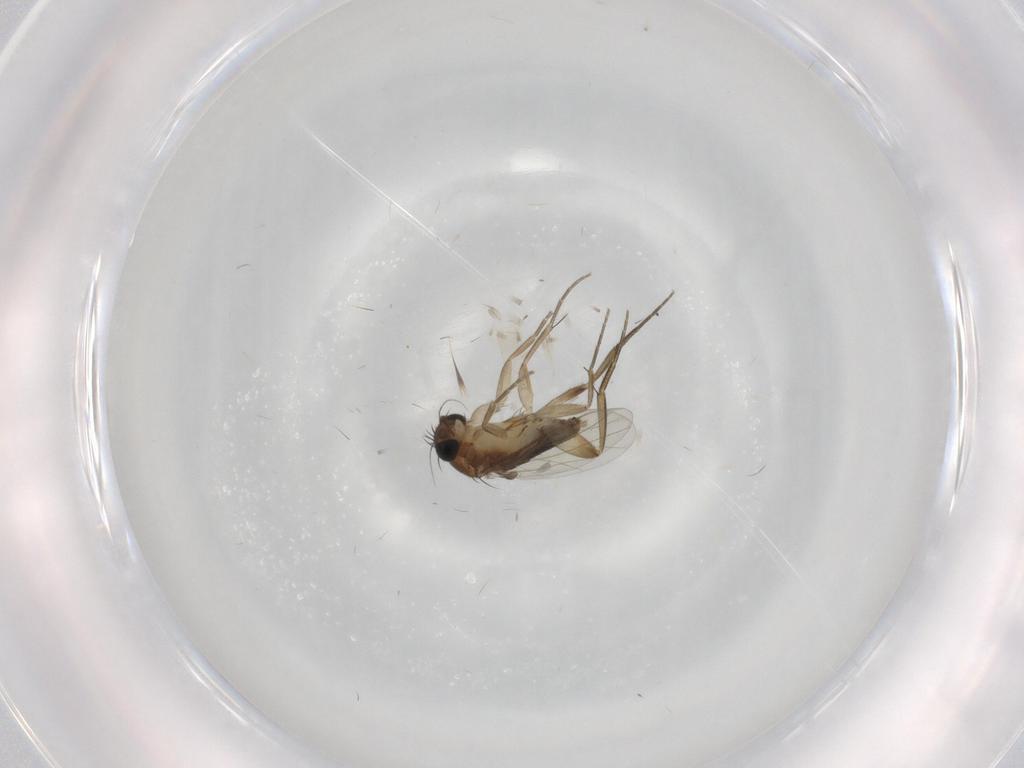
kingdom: Animalia
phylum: Arthropoda
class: Insecta
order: Diptera
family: Phoridae
